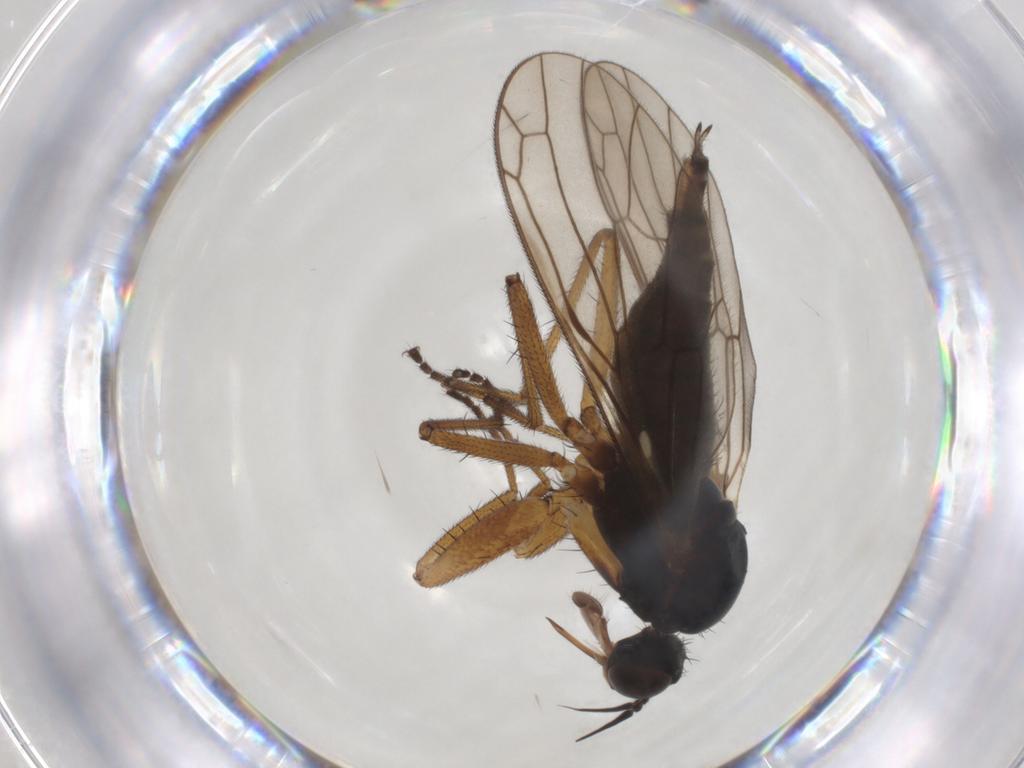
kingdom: Animalia
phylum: Arthropoda
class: Insecta
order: Diptera
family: Empididae
